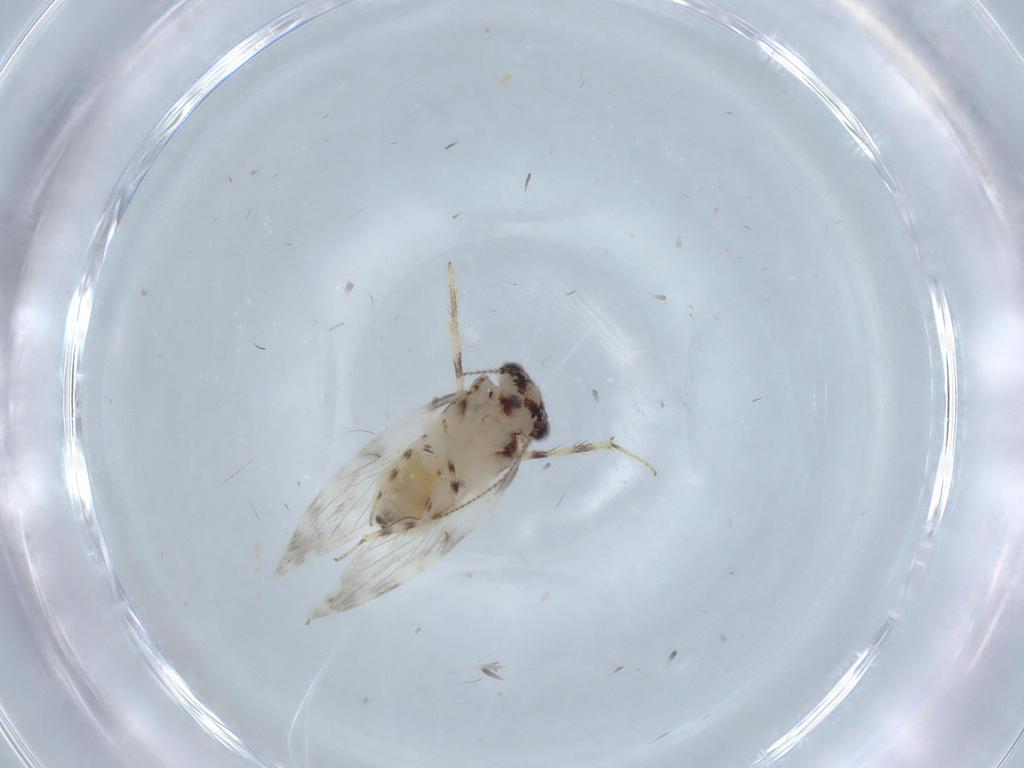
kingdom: Animalia
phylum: Arthropoda
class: Insecta
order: Psocodea
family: Lepidopsocidae
